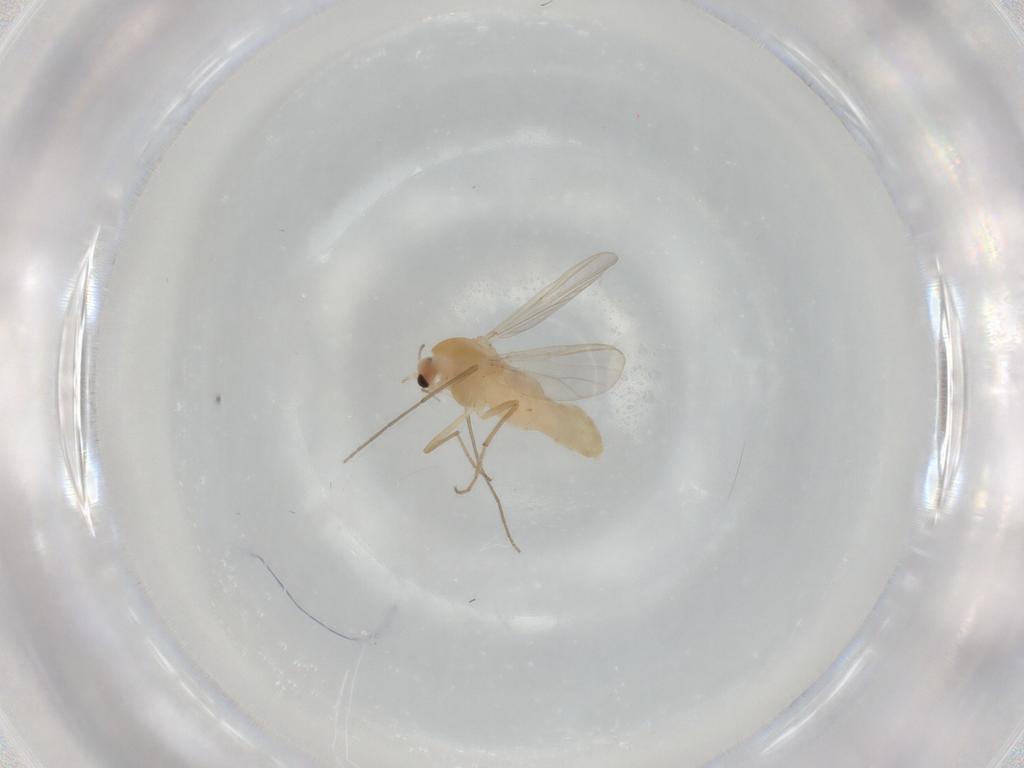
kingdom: Animalia
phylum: Arthropoda
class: Insecta
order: Diptera
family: Chironomidae
